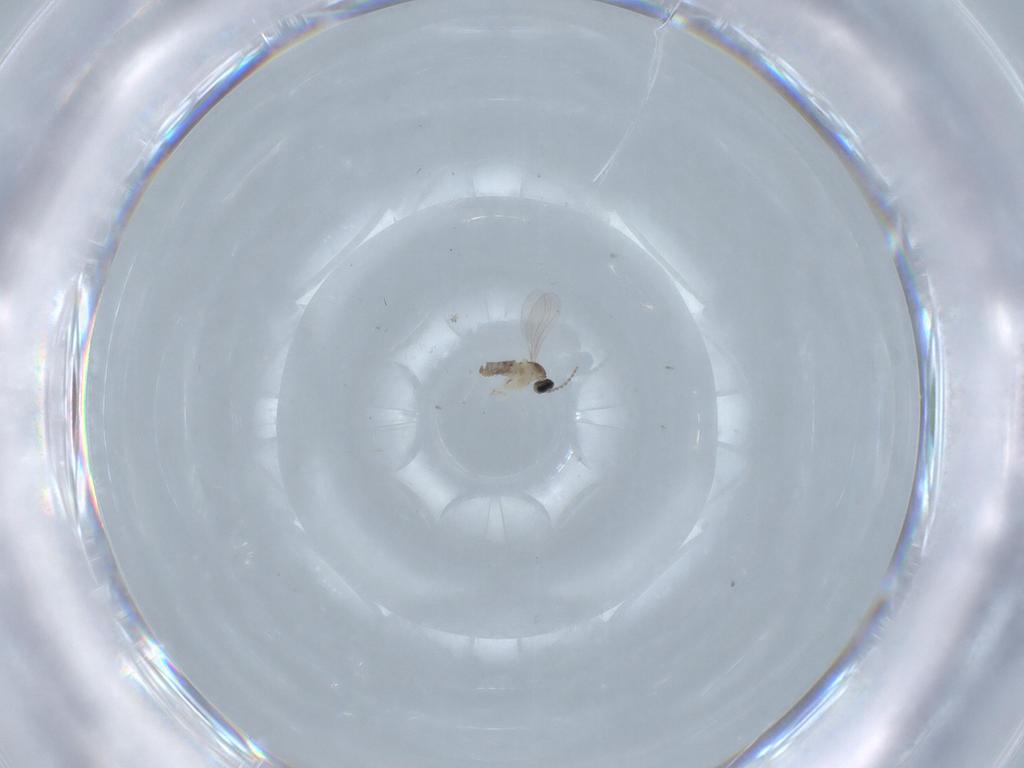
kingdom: Animalia
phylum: Arthropoda
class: Insecta
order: Diptera
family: Cecidomyiidae
